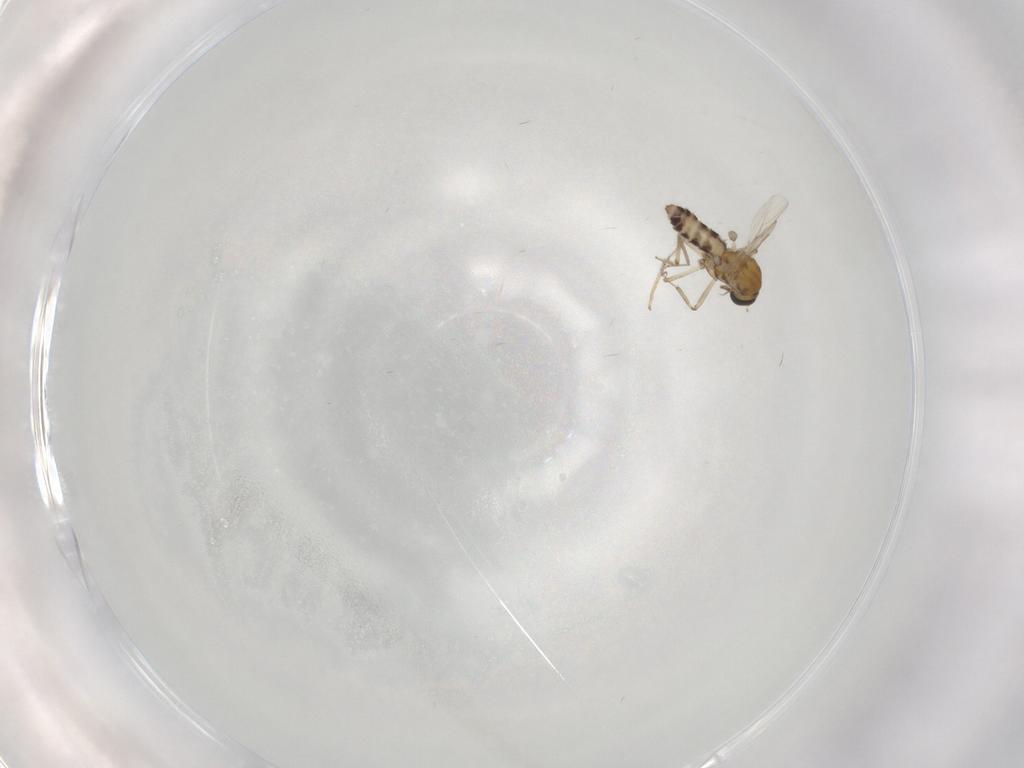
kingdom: Animalia
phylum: Arthropoda
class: Insecta
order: Diptera
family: Ceratopogonidae
